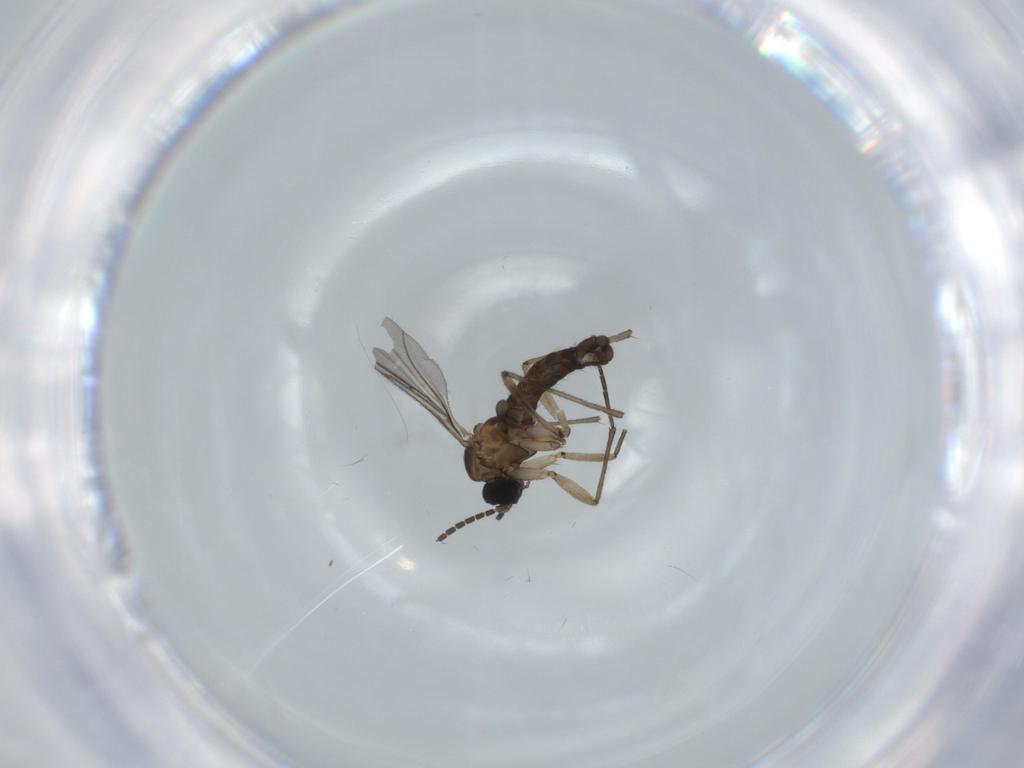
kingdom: Animalia
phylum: Arthropoda
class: Insecta
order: Diptera
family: Sciaridae
